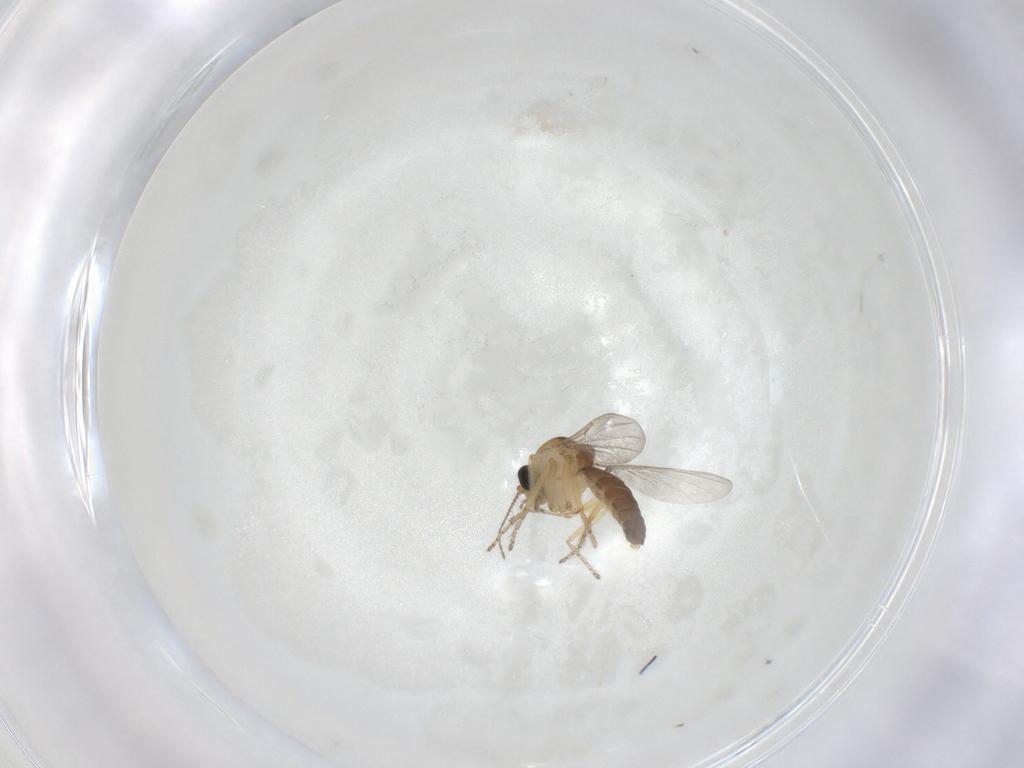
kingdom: Animalia
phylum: Arthropoda
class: Insecta
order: Diptera
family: Ceratopogonidae
